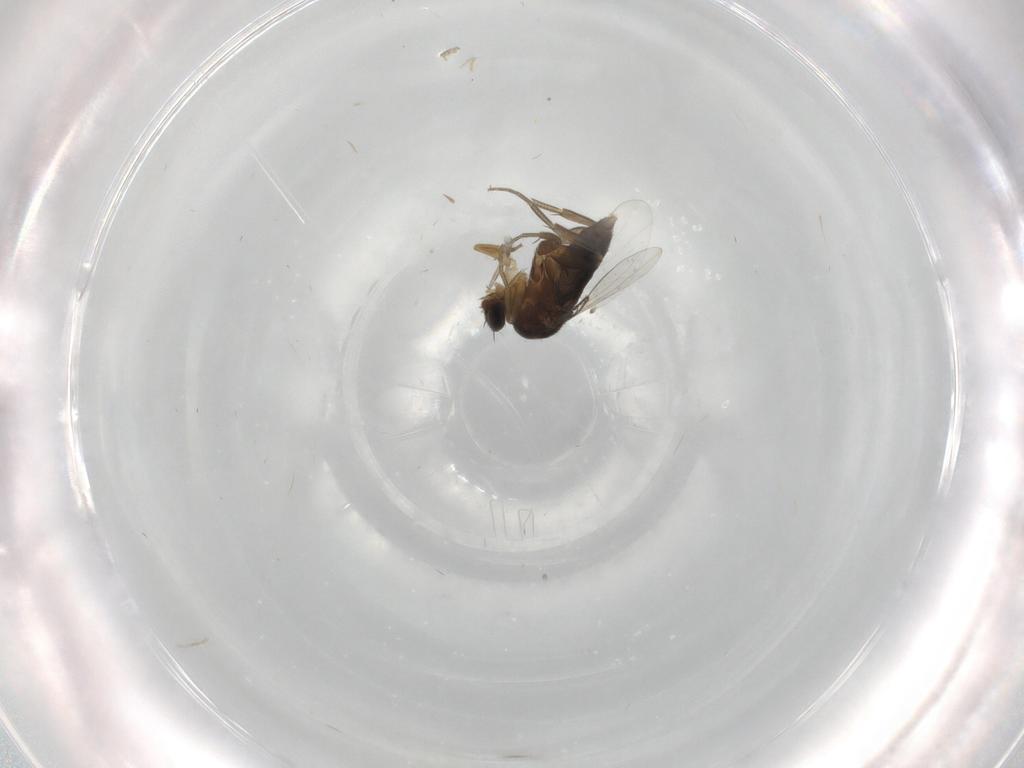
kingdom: Animalia
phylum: Arthropoda
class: Insecta
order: Diptera
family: Phoridae
